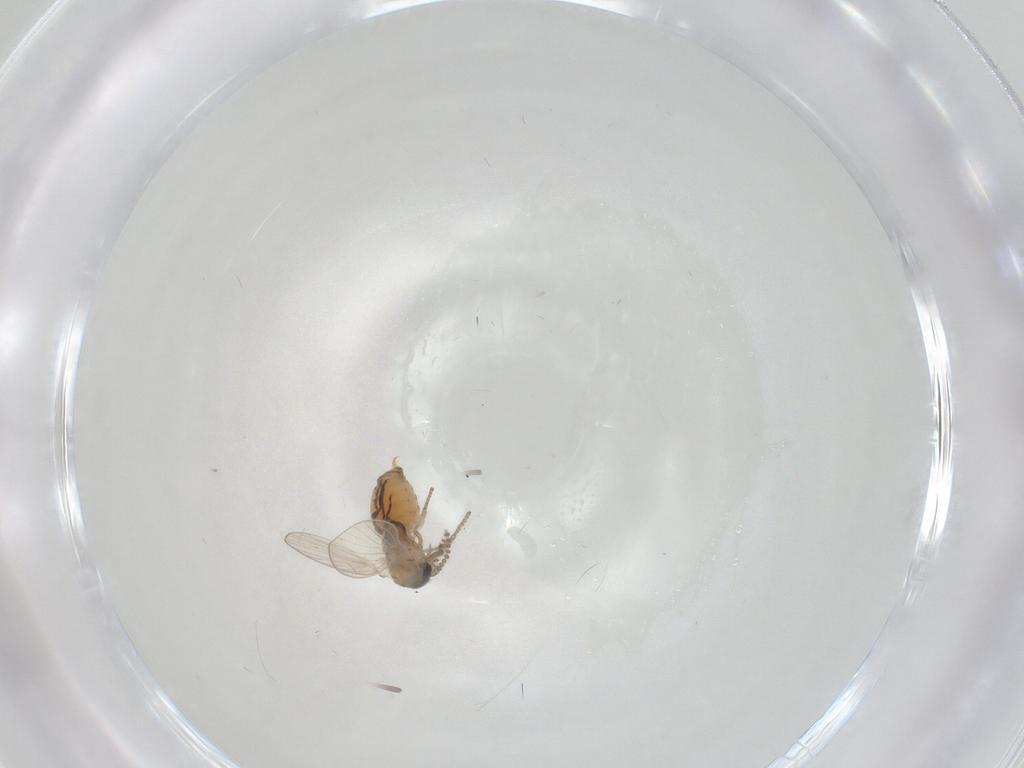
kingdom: Animalia
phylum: Arthropoda
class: Insecta
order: Diptera
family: Psychodidae
